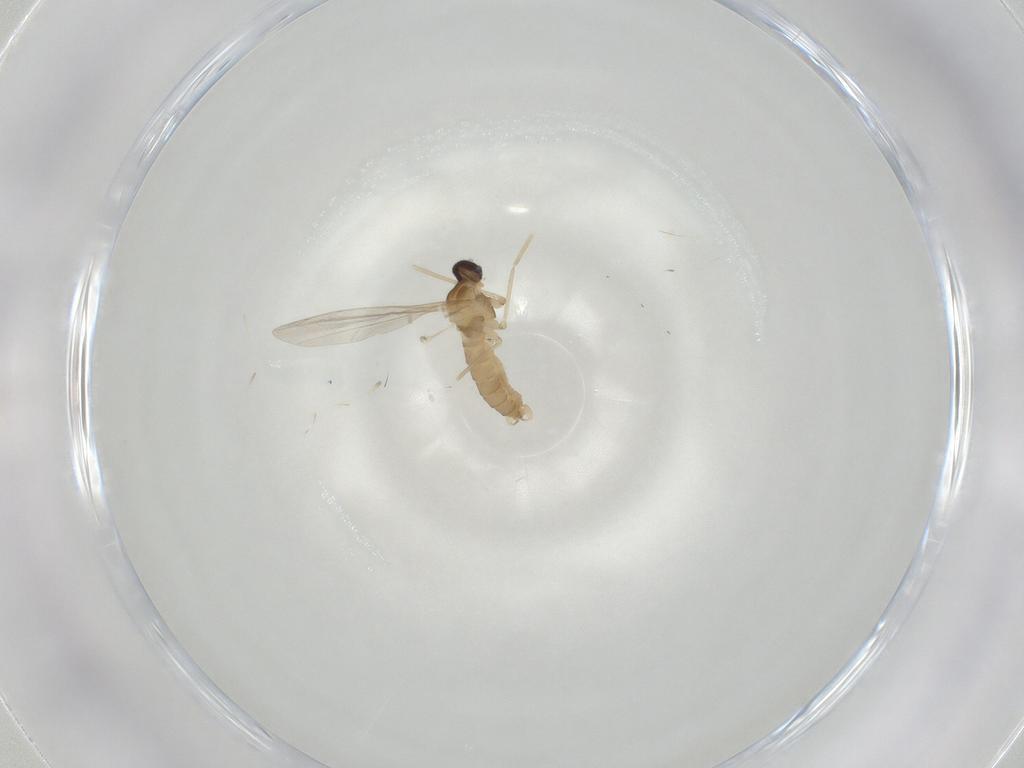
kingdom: Animalia
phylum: Arthropoda
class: Insecta
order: Diptera
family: Cecidomyiidae
